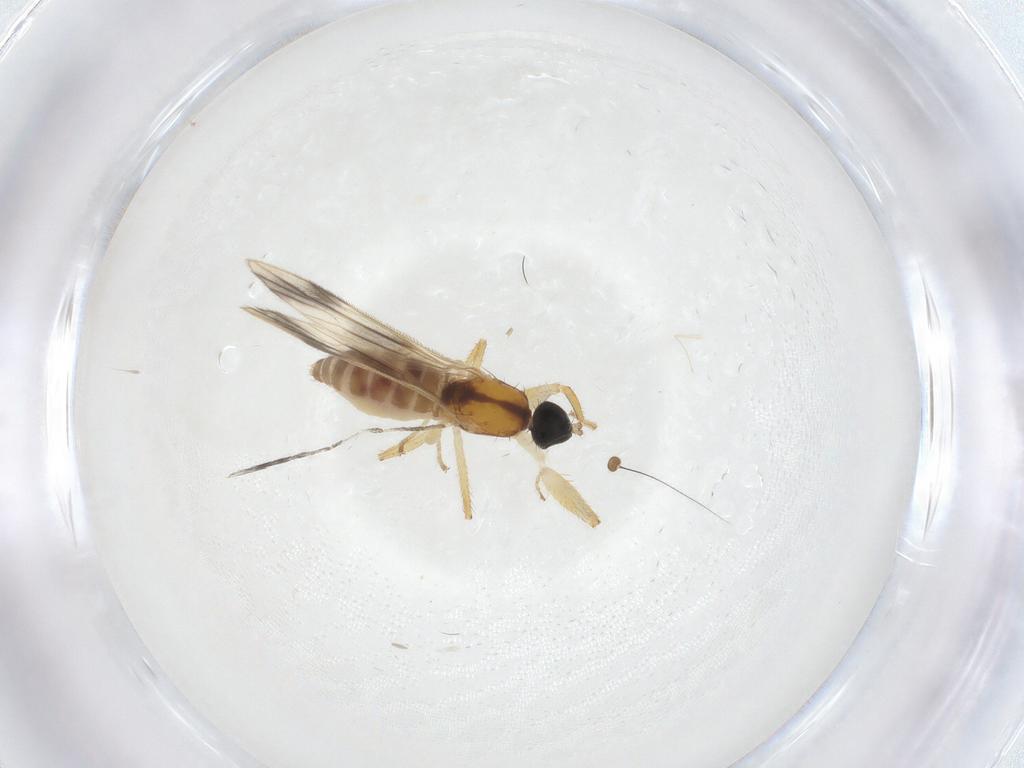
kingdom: Animalia
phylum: Arthropoda
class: Insecta
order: Diptera
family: Dolichopodidae
